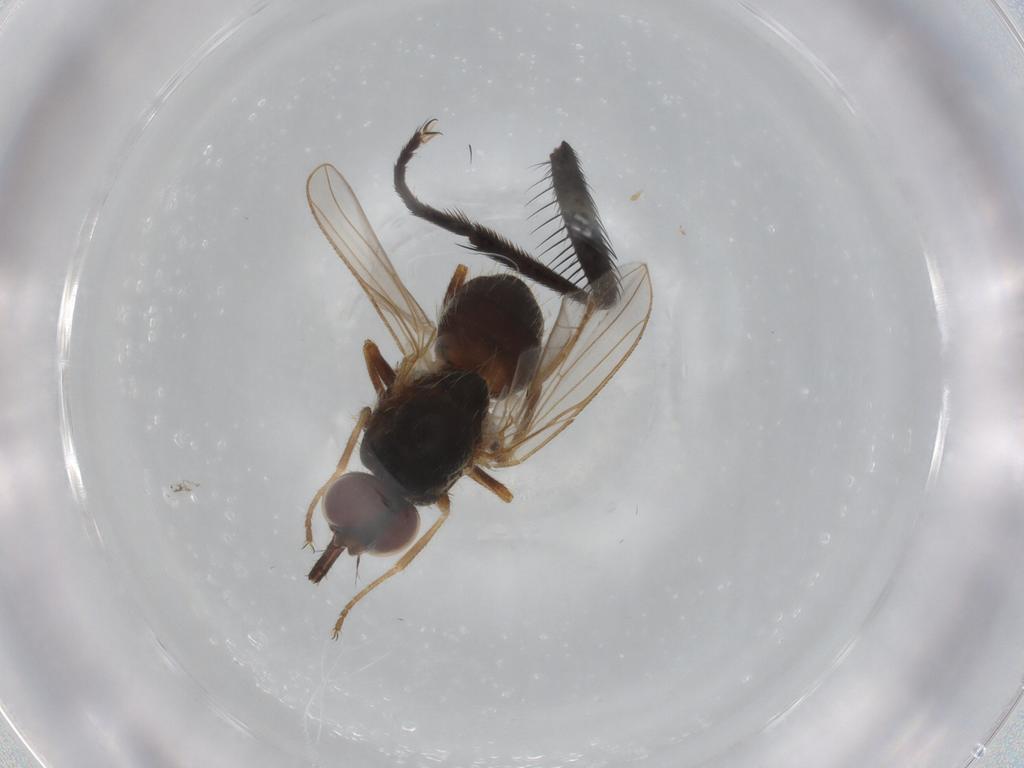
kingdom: Animalia
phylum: Arthropoda
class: Insecta
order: Diptera
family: Muscidae
